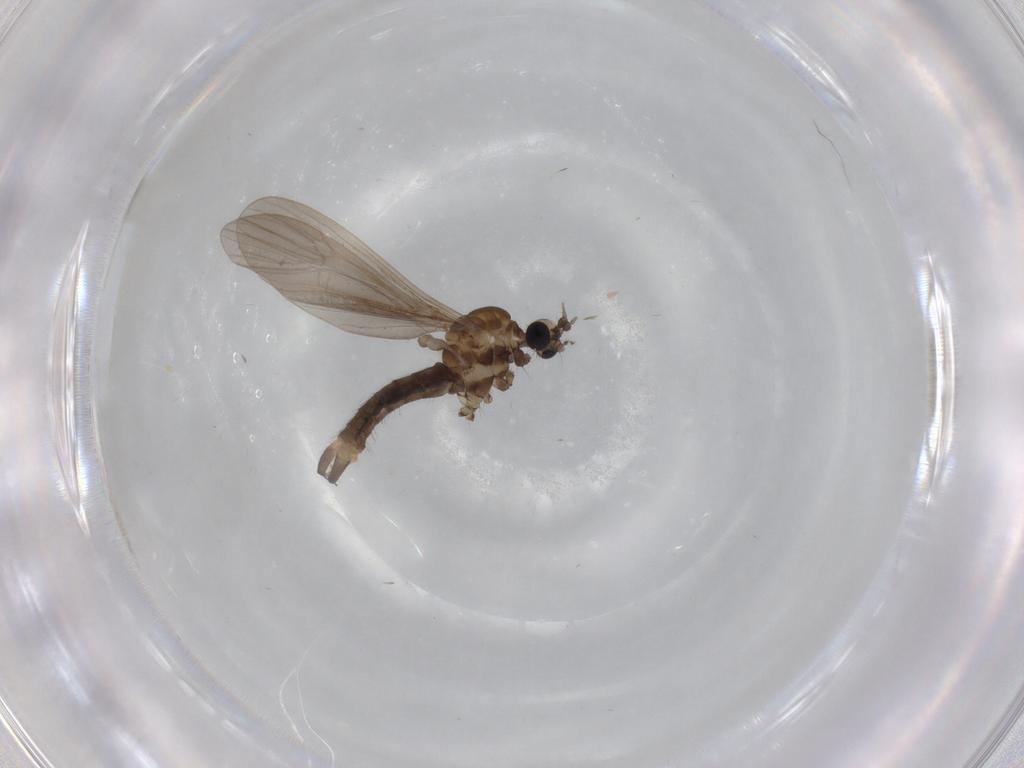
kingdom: Animalia
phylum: Arthropoda
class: Insecta
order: Diptera
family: Limoniidae
